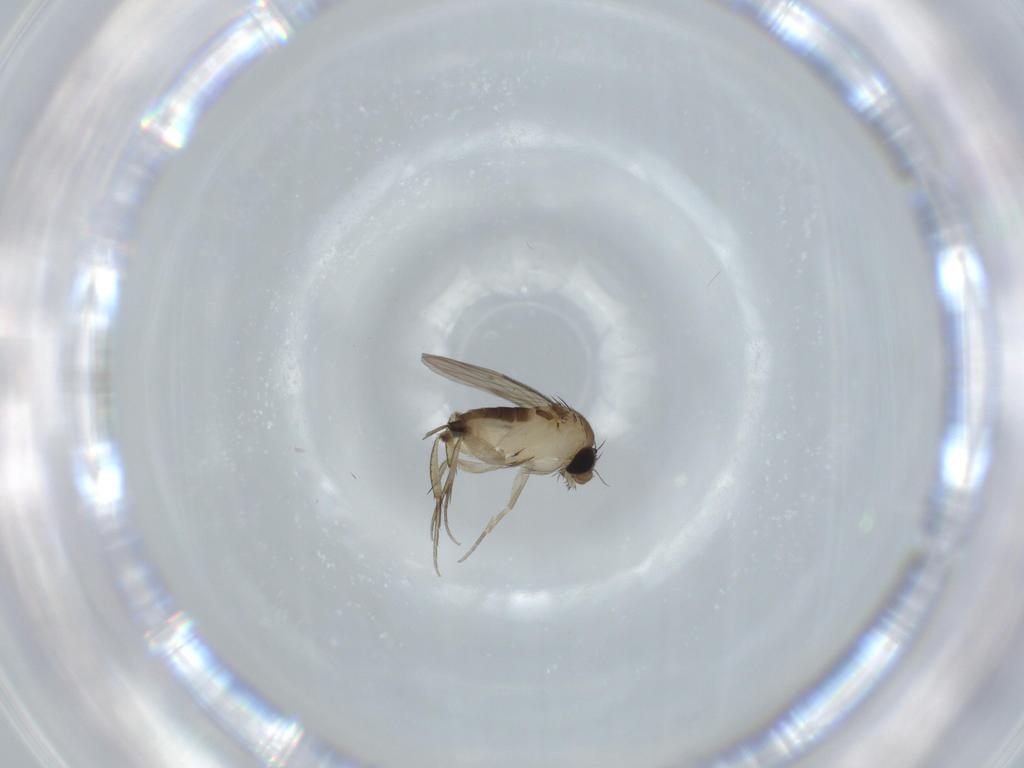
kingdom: Animalia
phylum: Arthropoda
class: Insecta
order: Diptera
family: Phoridae
